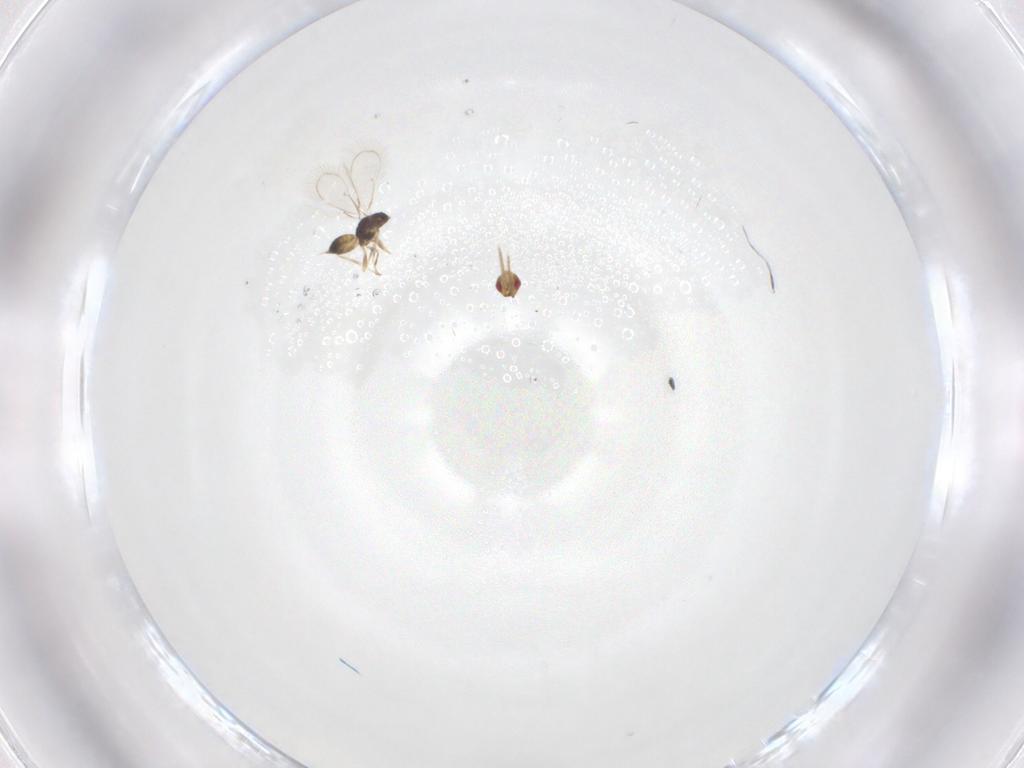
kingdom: Animalia
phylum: Arthropoda
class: Insecta
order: Hymenoptera
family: Eulophidae
